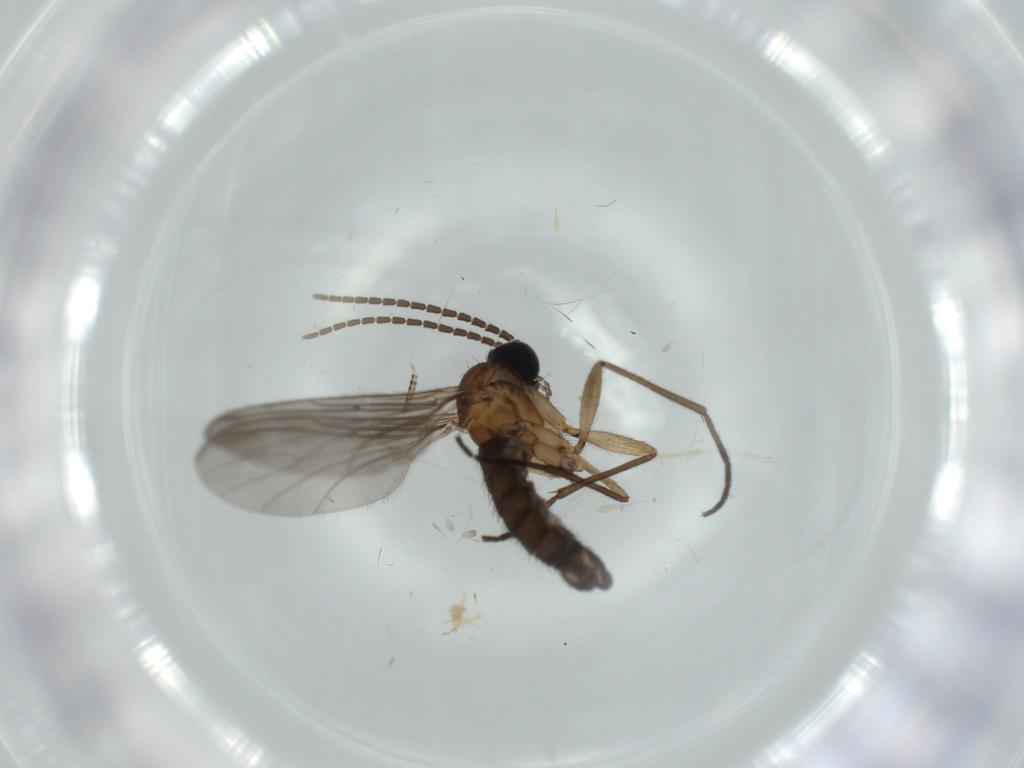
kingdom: Animalia
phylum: Arthropoda
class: Insecta
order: Diptera
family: Sciaridae
